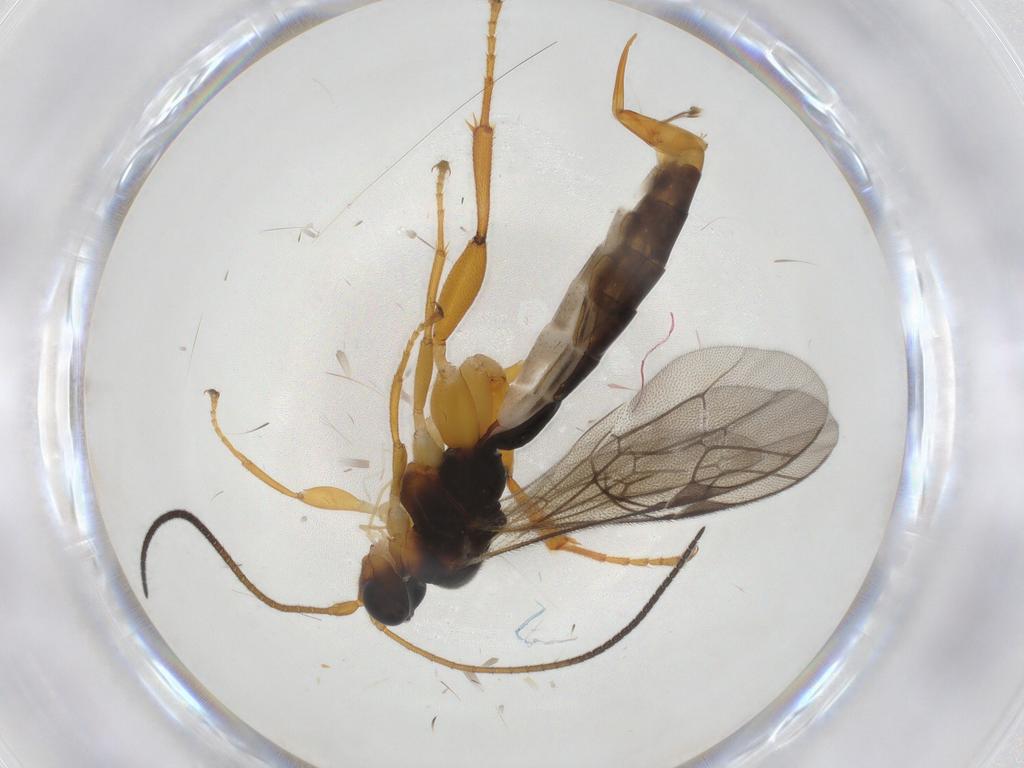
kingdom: Animalia
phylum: Arthropoda
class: Insecta
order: Hymenoptera
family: Ichneumonidae
